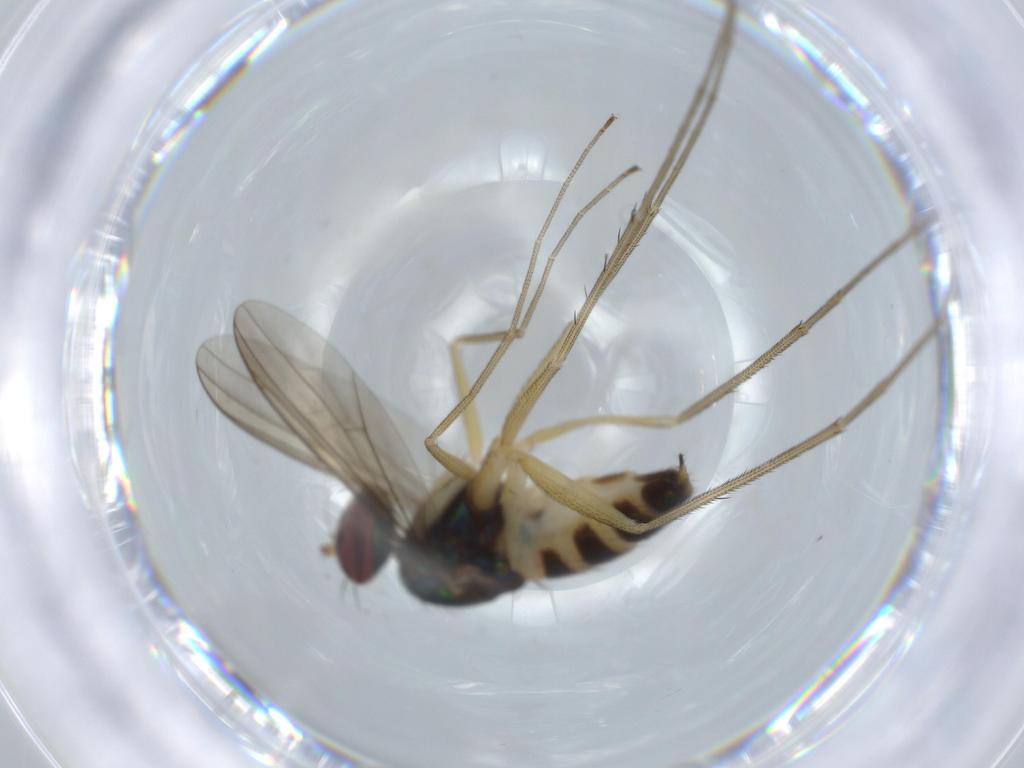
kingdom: Animalia
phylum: Arthropoda
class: Insecta
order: Diptera
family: Dolichopodidae
